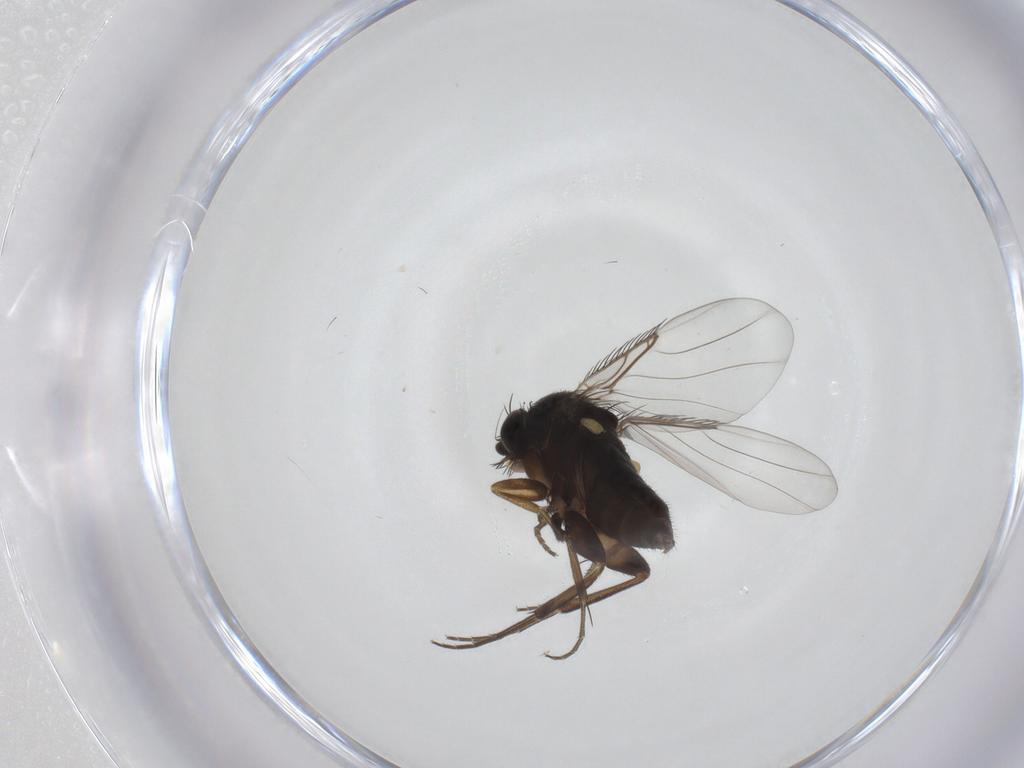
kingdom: Animalia
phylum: Arthropoda
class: Insecta
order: Diptera
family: Phoridae
